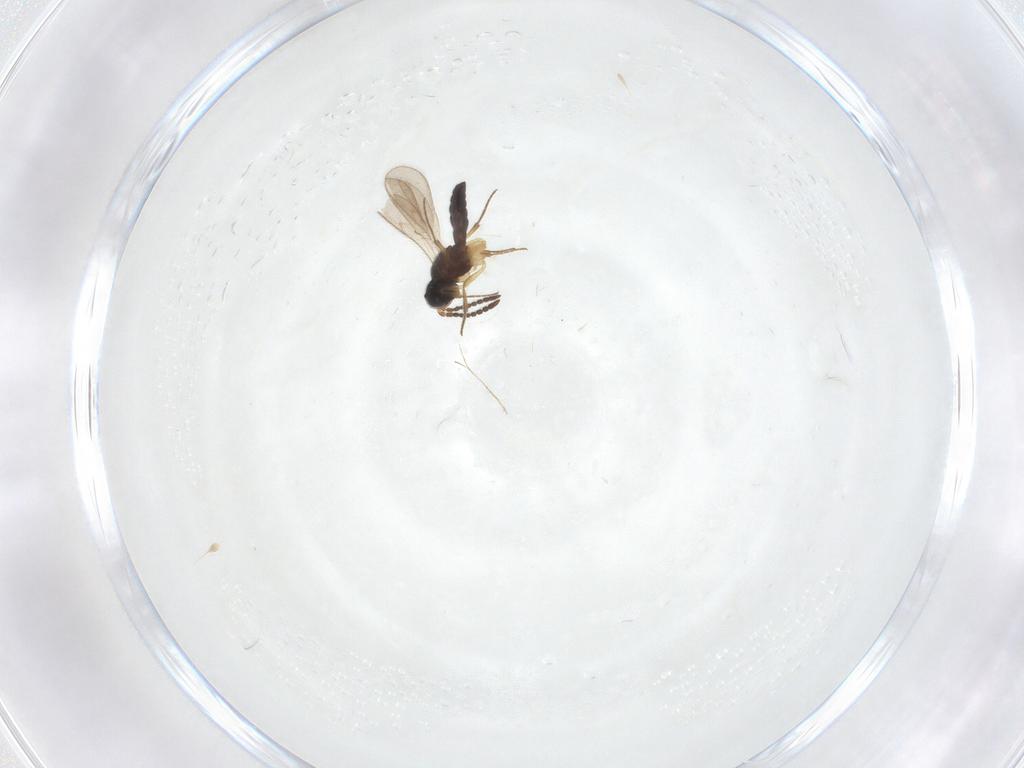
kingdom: Animalia
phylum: Arthropoda
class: Insecta
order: Hymenoptera
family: Scelionidae
